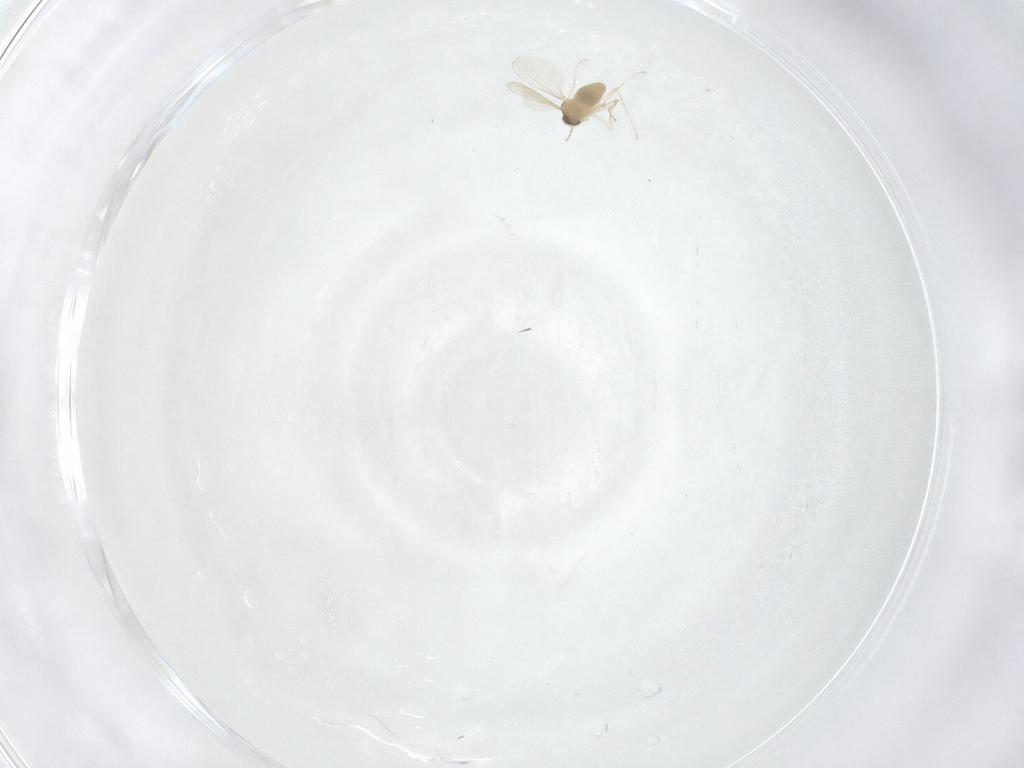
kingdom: Animalia
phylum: Arthropoda
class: Insecta
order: Diptera
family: Cecidomyiidae
